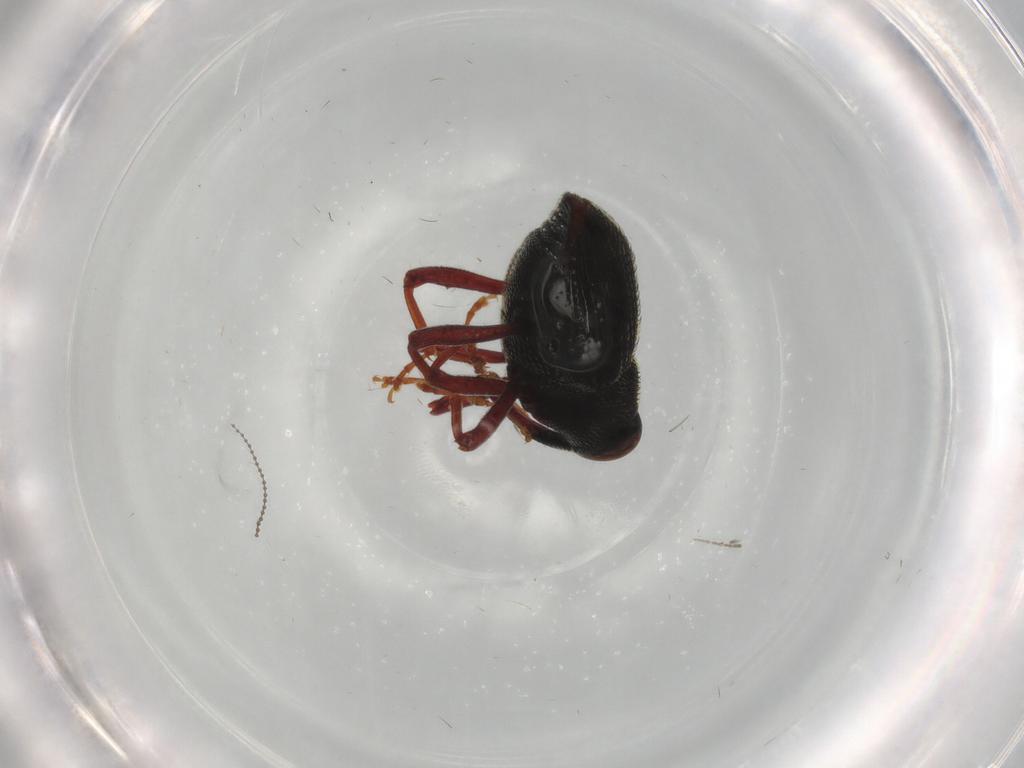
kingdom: Animalia
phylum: Arthropoda
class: Insecta
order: Coleoptera
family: Curculionidae
